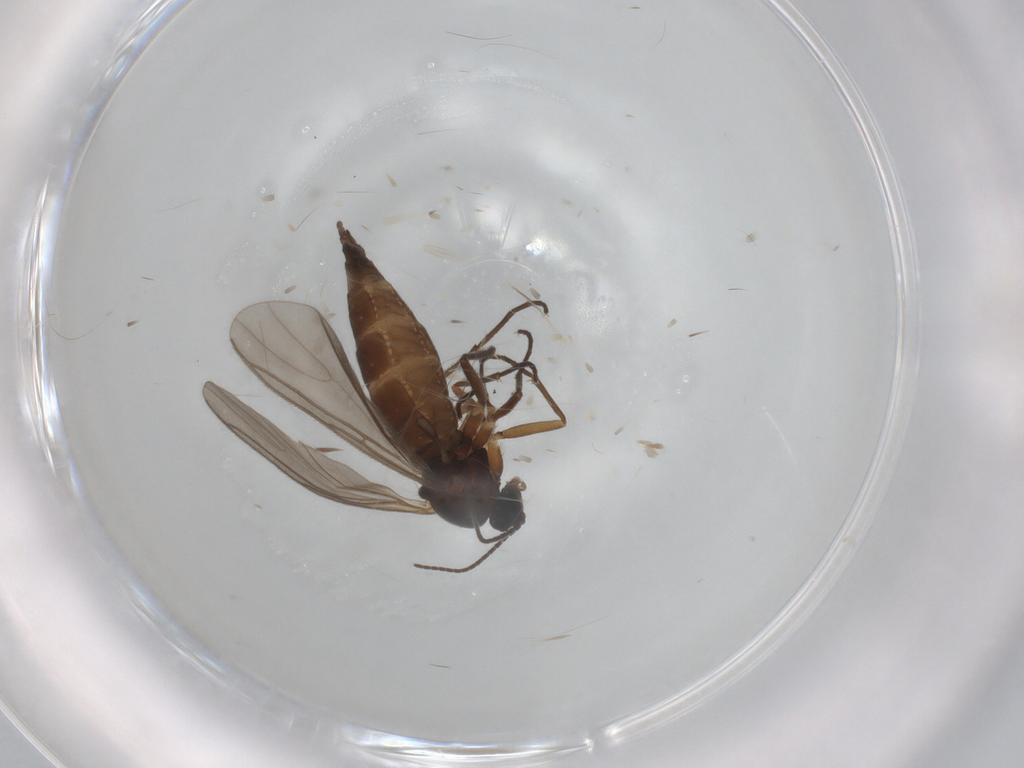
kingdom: Animalia
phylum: Arthropoda
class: Insecta
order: Diptera
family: Sciaridae
